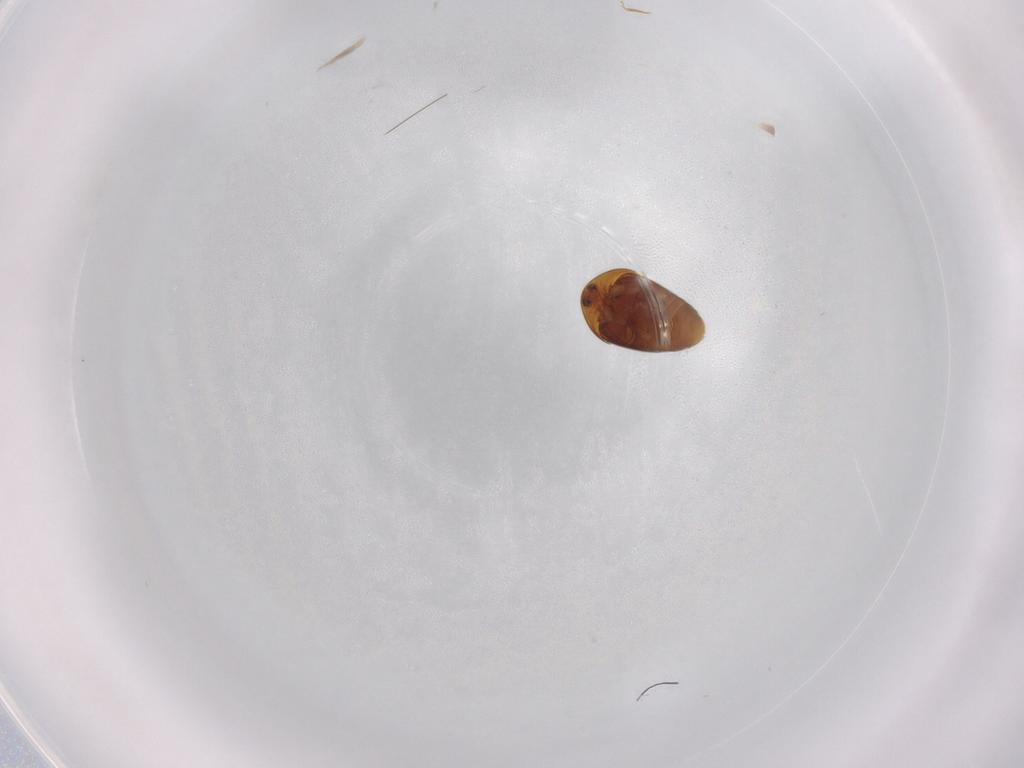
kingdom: Animalia
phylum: Arthropoda
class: Insecta
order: Coleoptera
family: Corylophidae
